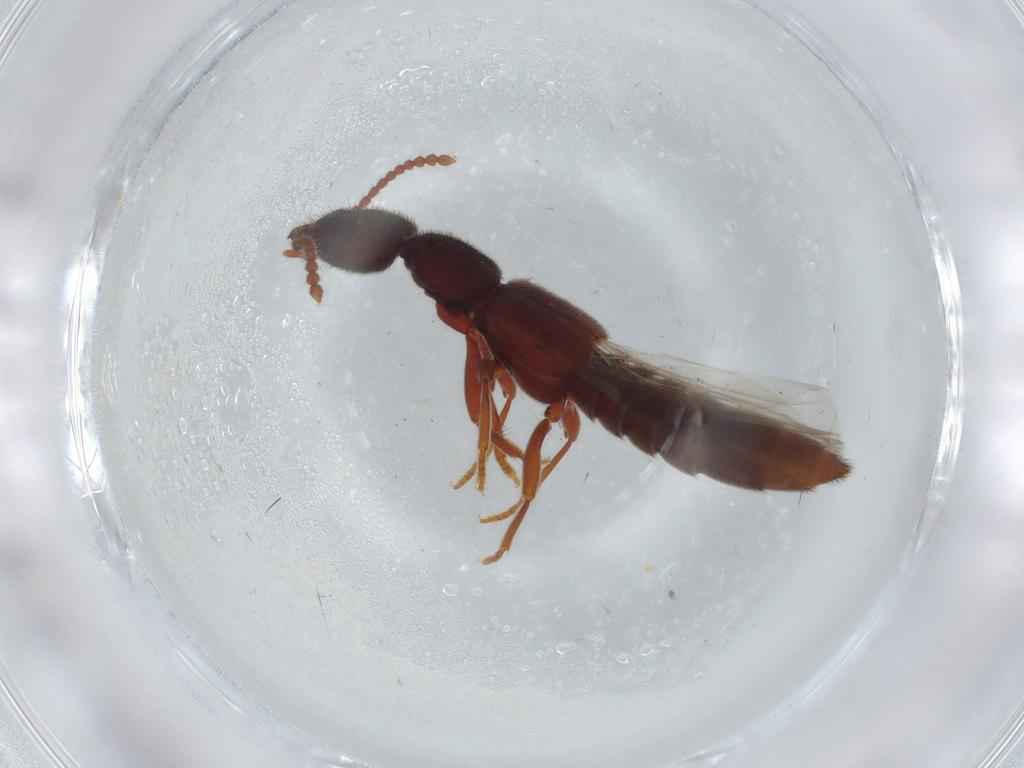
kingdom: Animalia
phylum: Arthropoda
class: Insecta
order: Coleoptera
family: Staphylinidae
